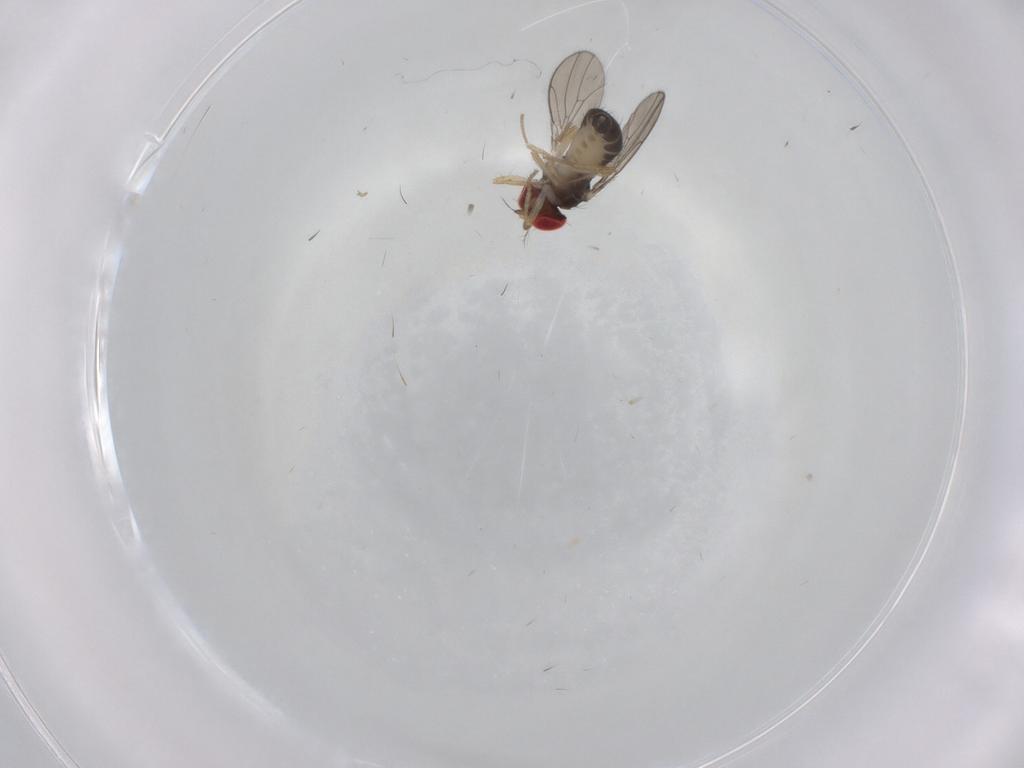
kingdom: Animalia
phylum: Arthropoda
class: Insecta
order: Diptera
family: Drosophilidae
